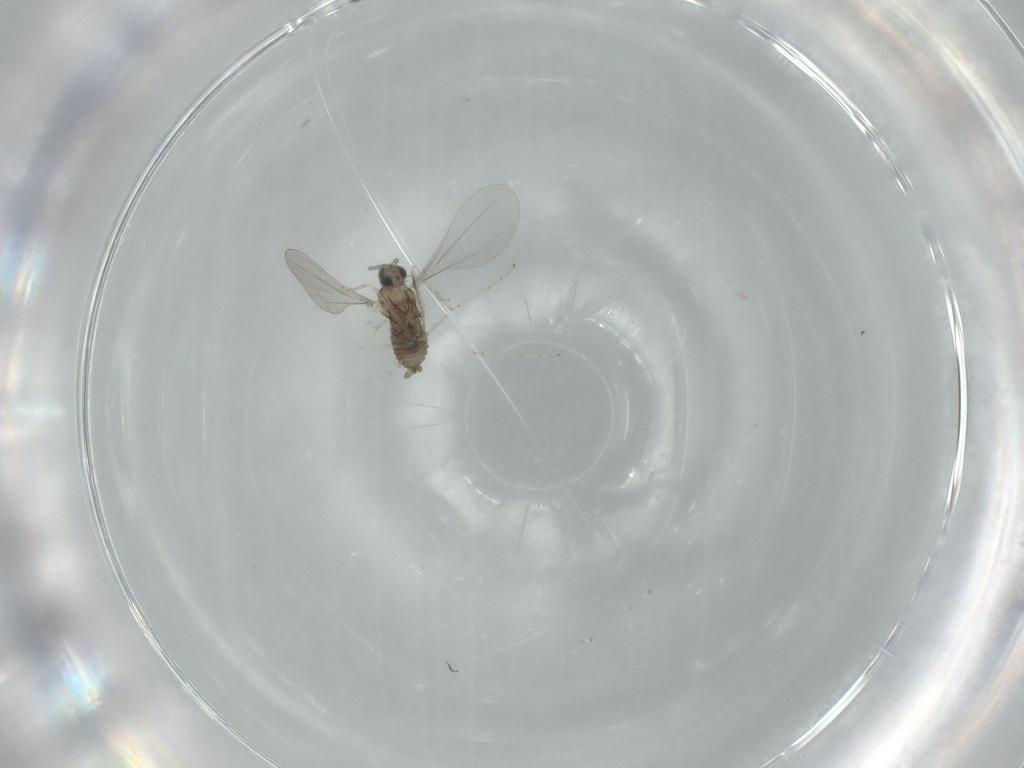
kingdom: Animalia
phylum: Arthropoda
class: Insecta
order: Diptera
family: Cecidomyiidae
